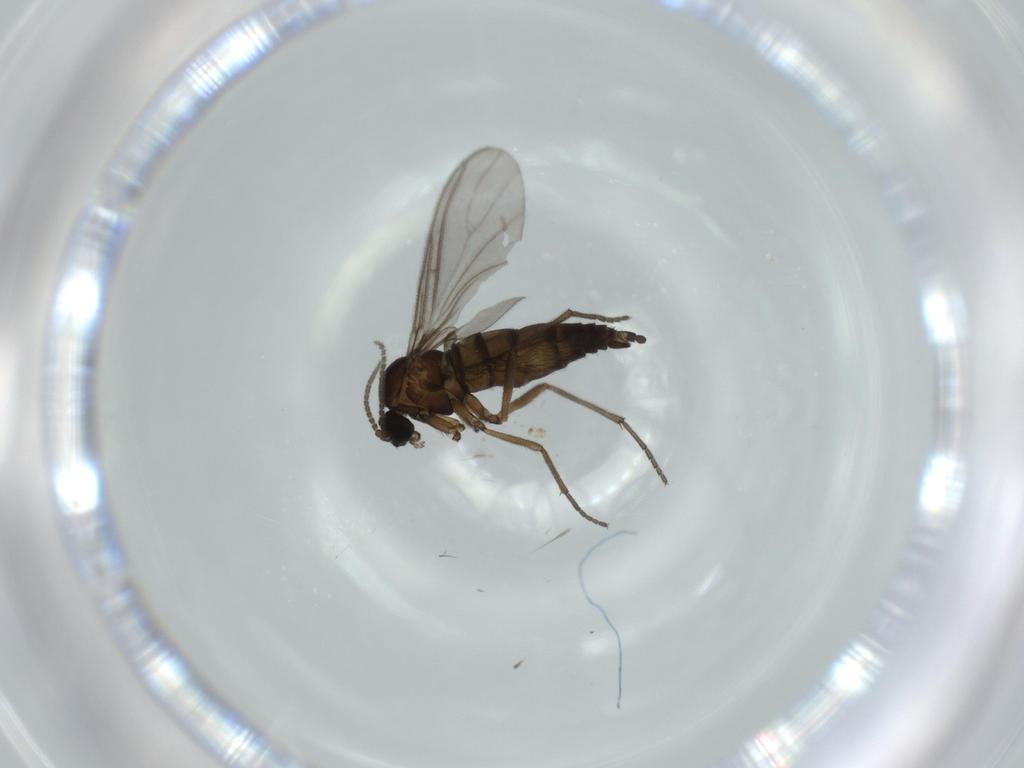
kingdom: Animalia
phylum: Arthropoda
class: Insecta
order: Diptera
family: Sciaridae
